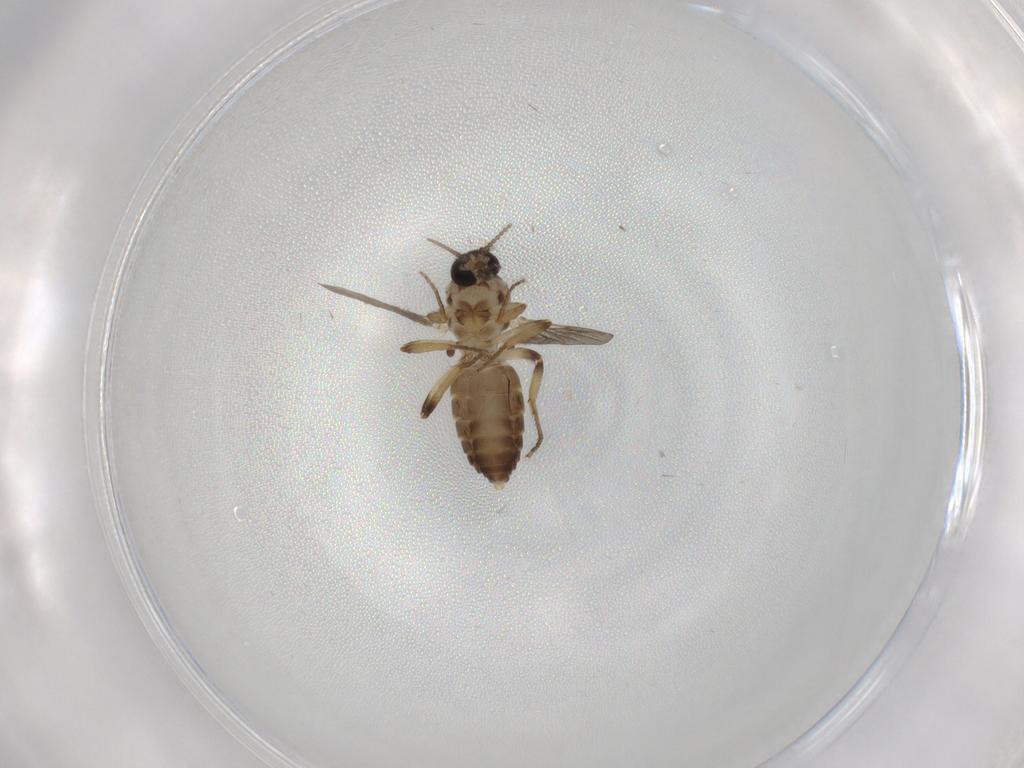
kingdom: Animalia
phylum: Arthropoda
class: Insecta
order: Diptera
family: Ceratopogonidae
